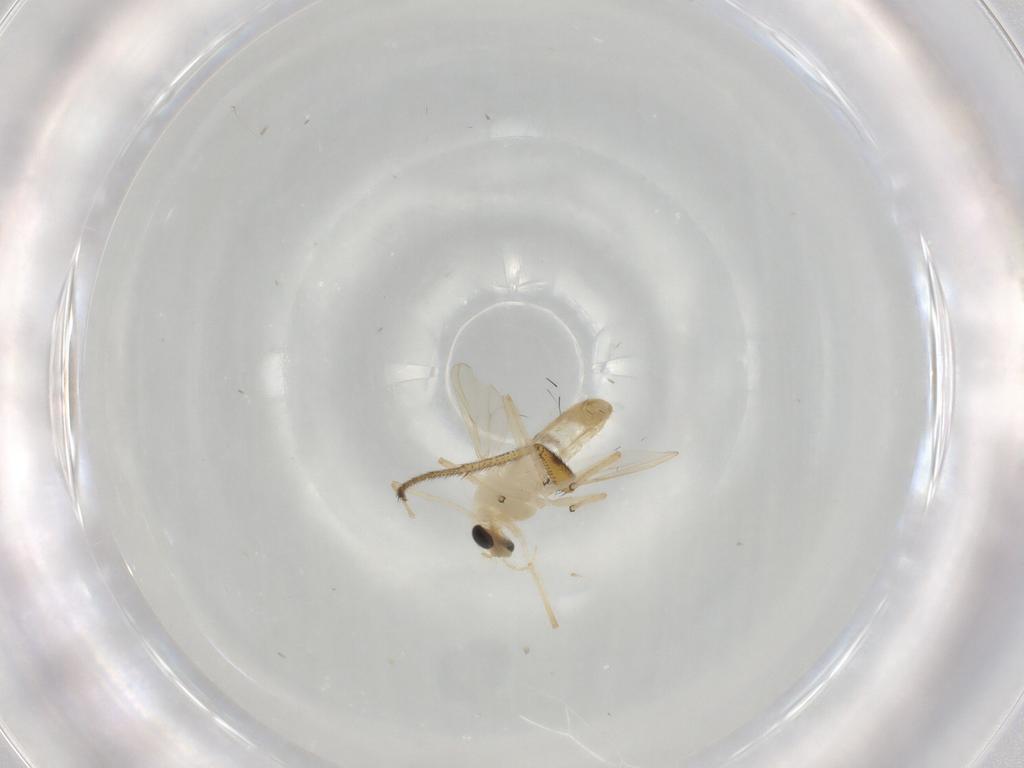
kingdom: Animalia
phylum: Arthropoda
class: Insecta
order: Diptera
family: Chironomidae
